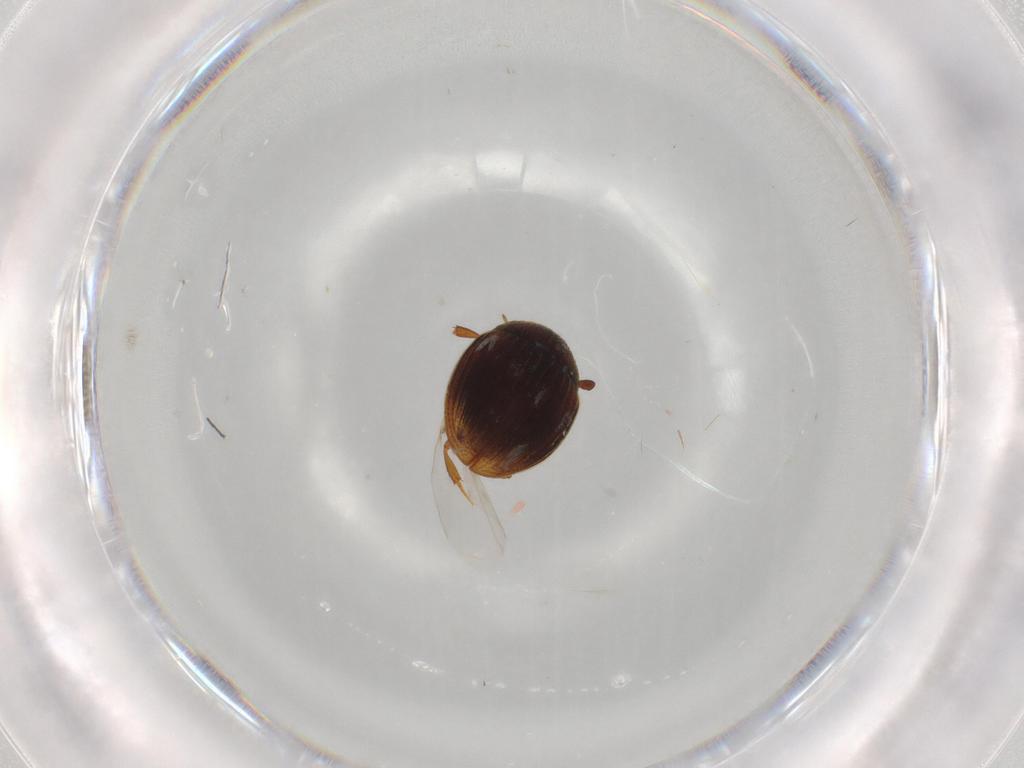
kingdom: Animalia
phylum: Arthropoda
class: Insecta
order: Coleoptera
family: Hydrophilidae
